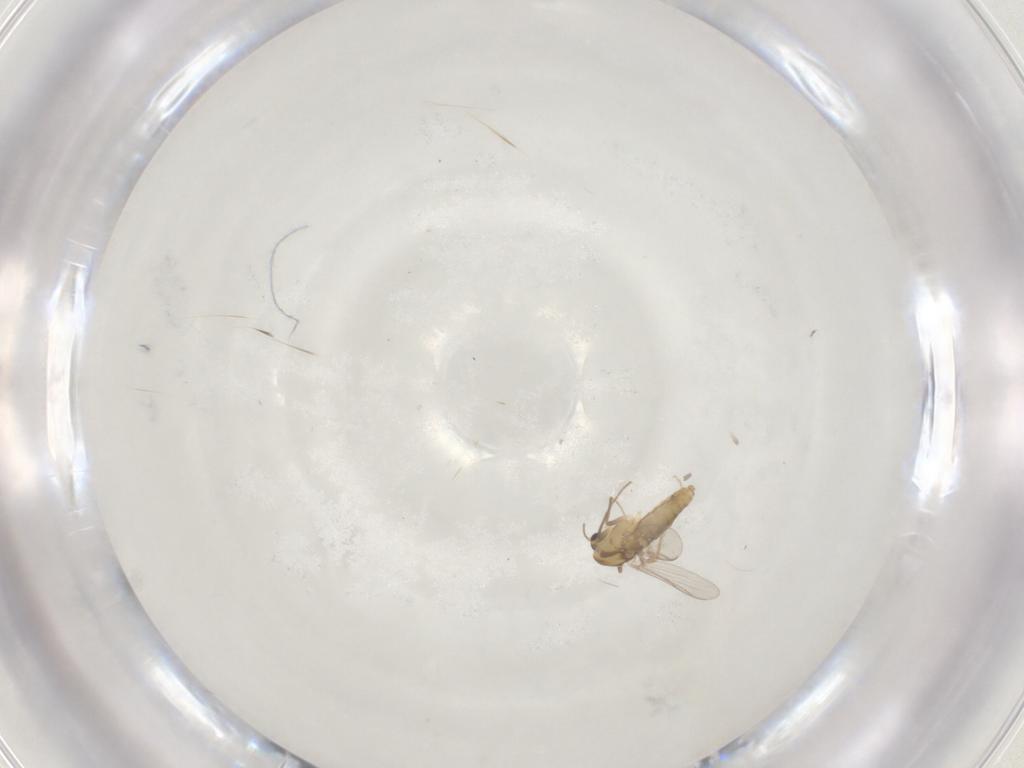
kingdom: Animalia
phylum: Arthropoda
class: Insecta
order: Diptera
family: Chironomidae
